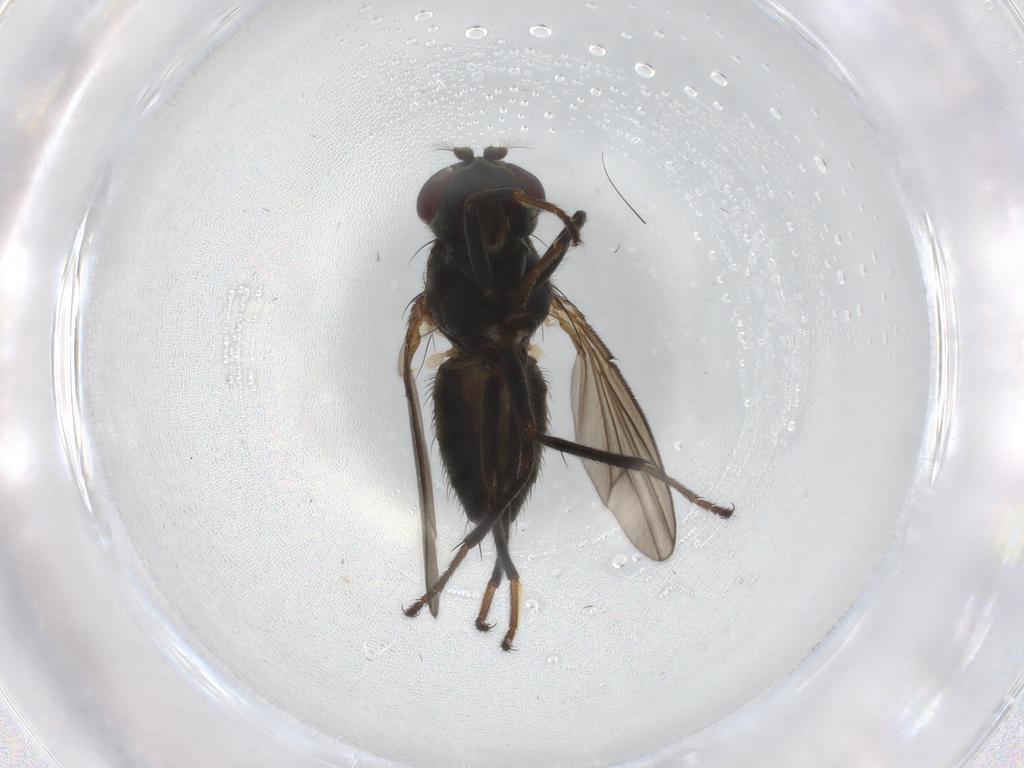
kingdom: Animalia
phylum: Arthropoda
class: Insecta
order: Diptera
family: Ephydridae
